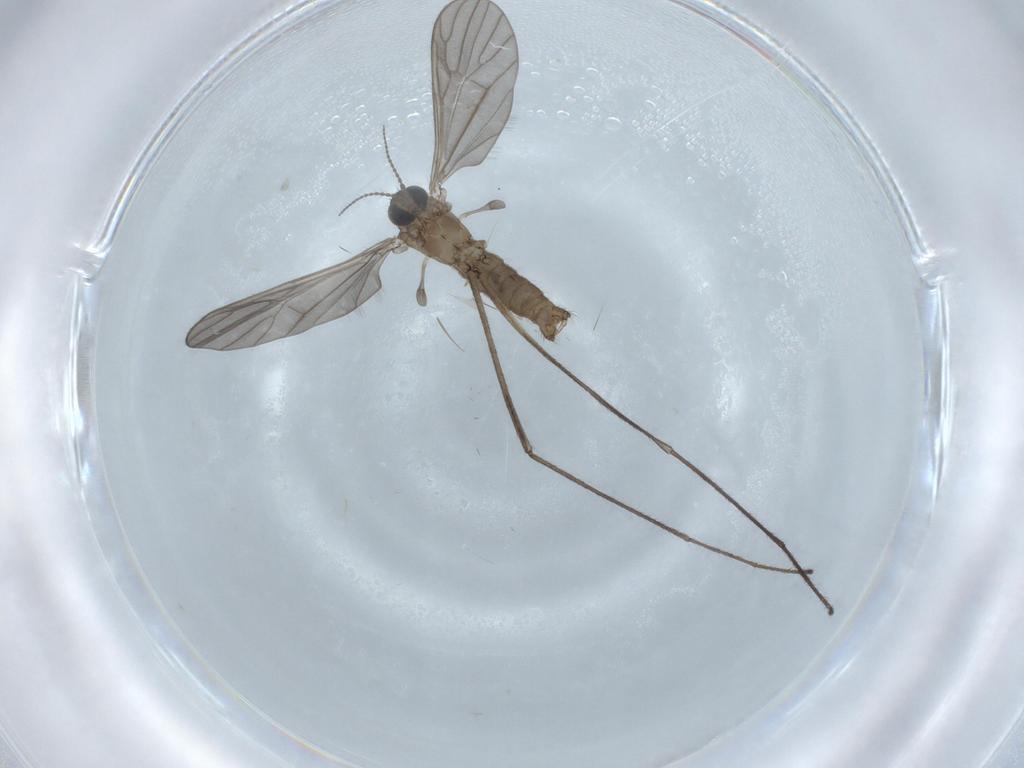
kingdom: Animalia
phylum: Arthropoda
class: Insecta
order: Diptera
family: Sciaridae
